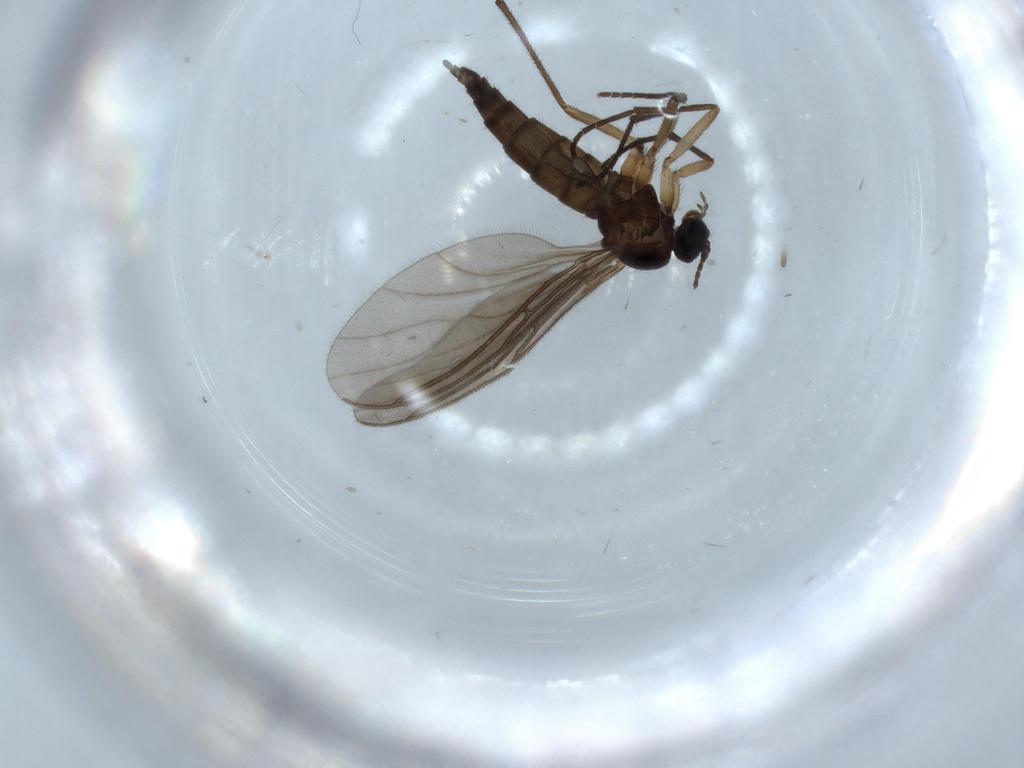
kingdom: Animalia
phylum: Arthropoda
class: Insecta
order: Diptera
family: Sciaridae
